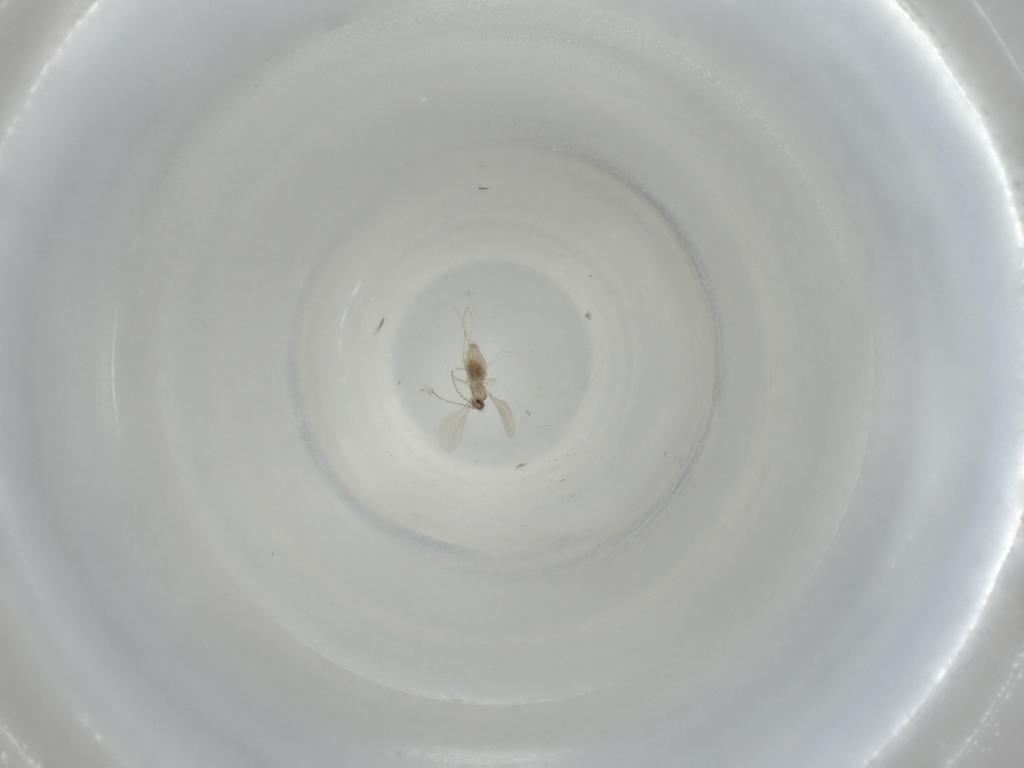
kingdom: Animalia
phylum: Arthropoda
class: Insecta
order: Diptera
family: Cecidomyiidae
